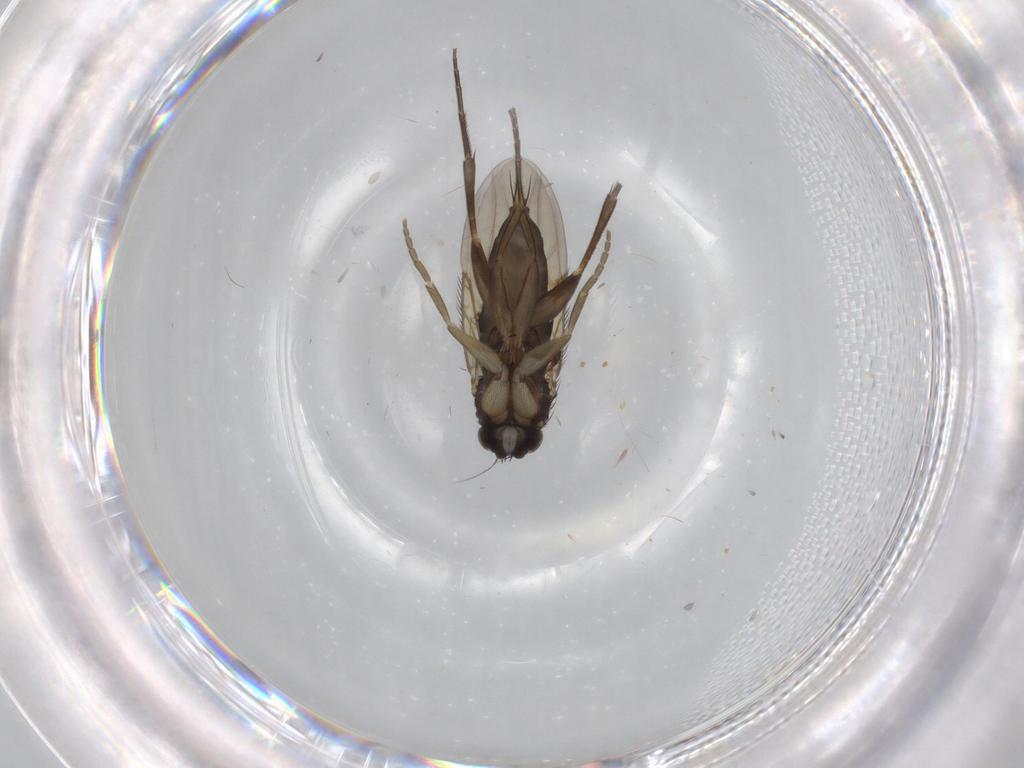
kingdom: Animalia
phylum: Arthropoda
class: Insecta
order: Diptera
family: Phoridae
